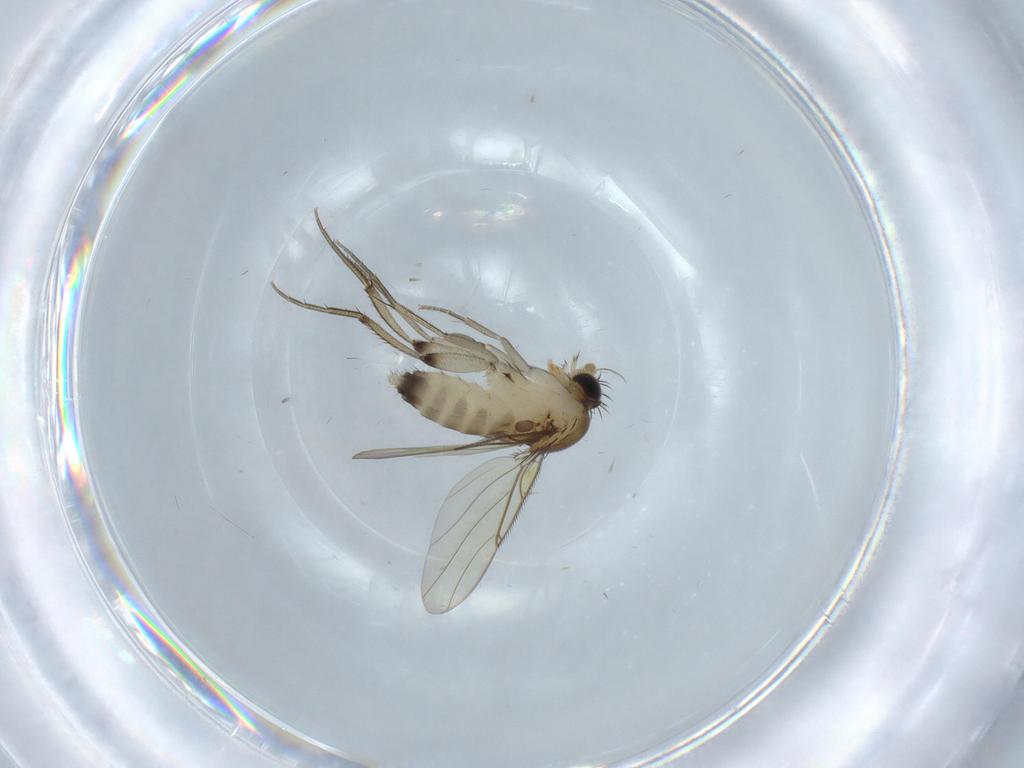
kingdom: Animalia
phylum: Arthropoda
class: Insecta
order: Diptera
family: Phoridae
